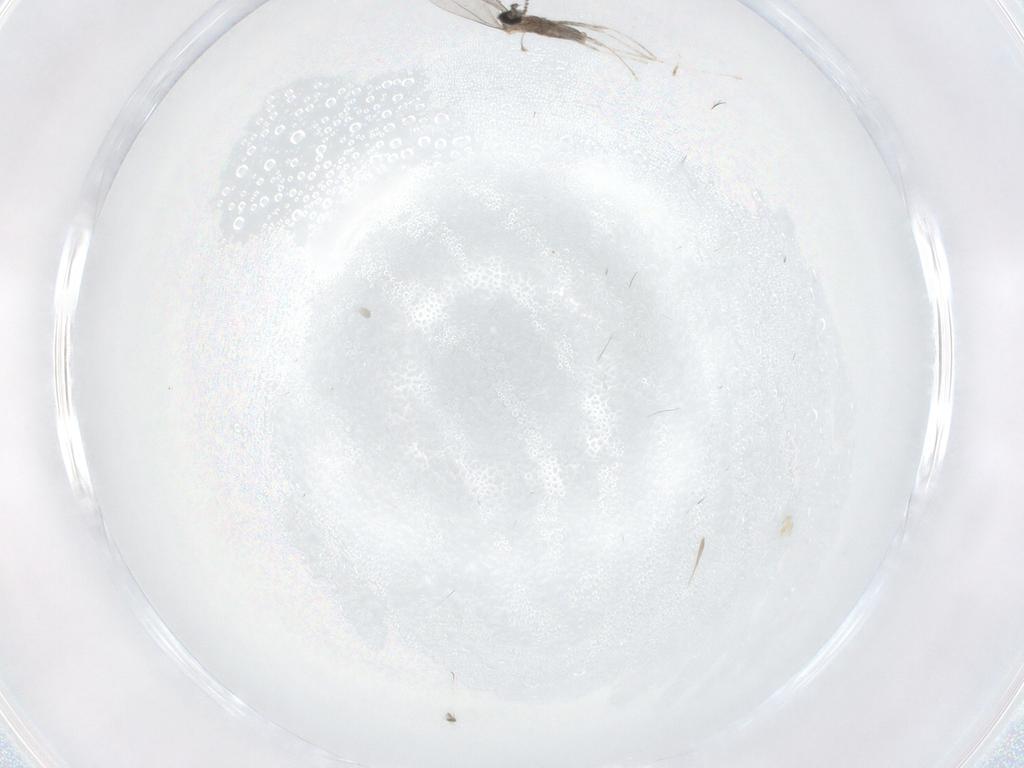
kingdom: Animalia
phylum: Arthropoda
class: Insecta
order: Diptera
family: Cecidomyiidae
